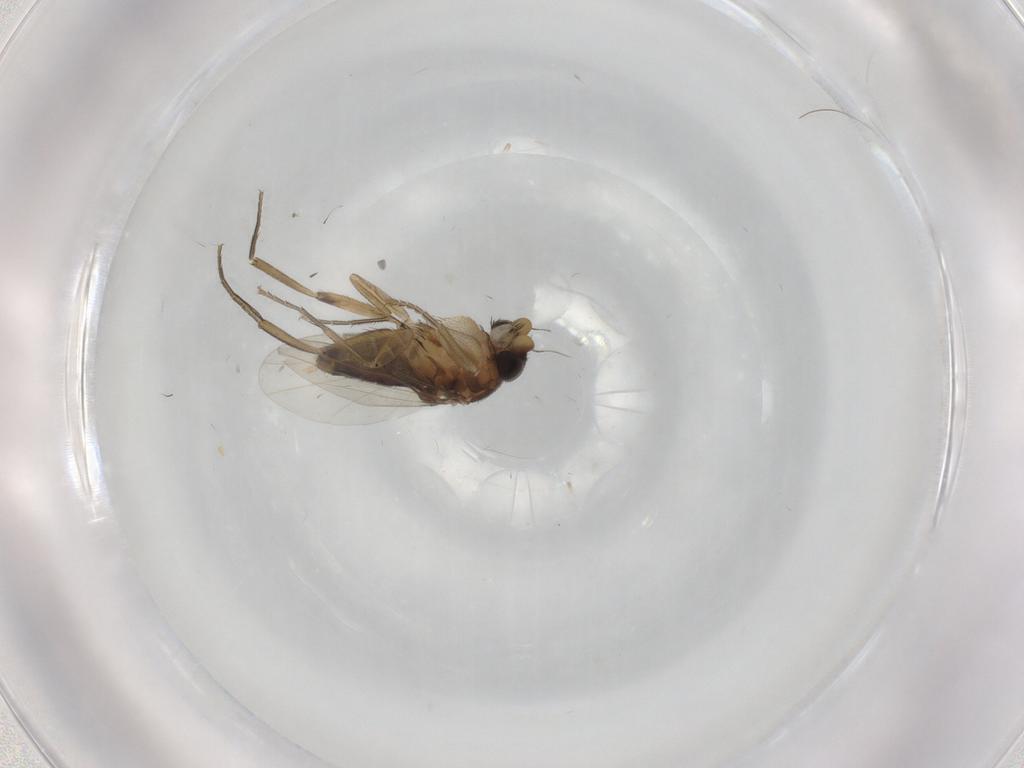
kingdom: Animalia
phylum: Arthropoda
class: Insecta
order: Diptera
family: Phoridae
